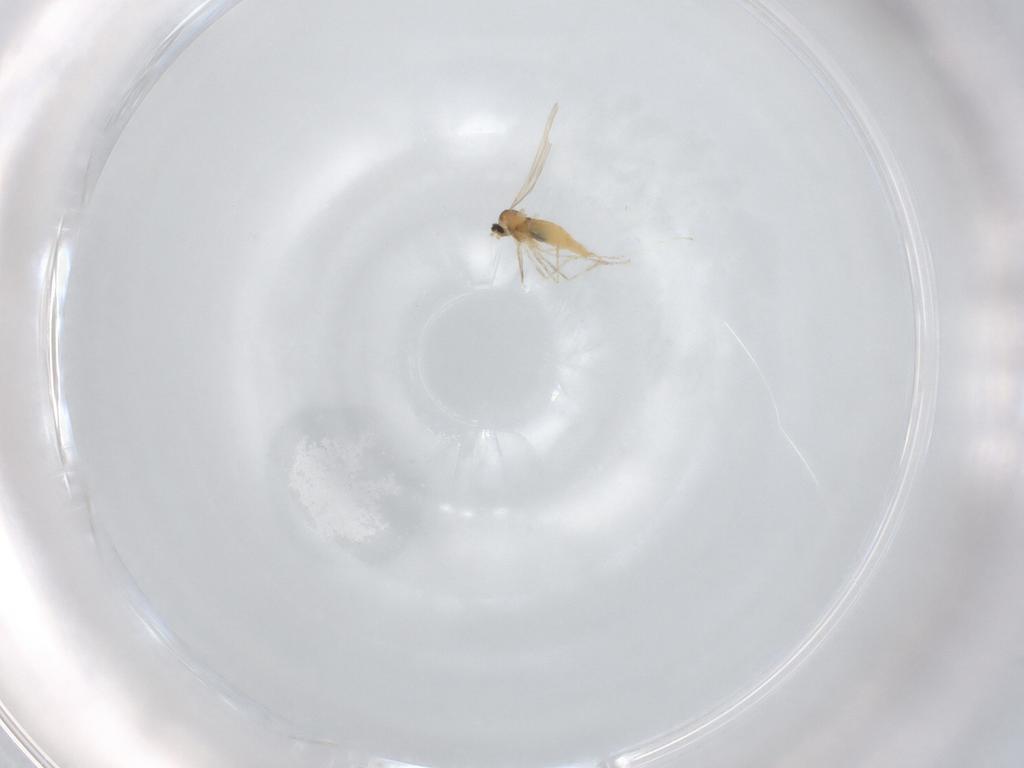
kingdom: Animalia
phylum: Arthropoda
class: Insecta
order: Diptera
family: Cecidomyiidae
